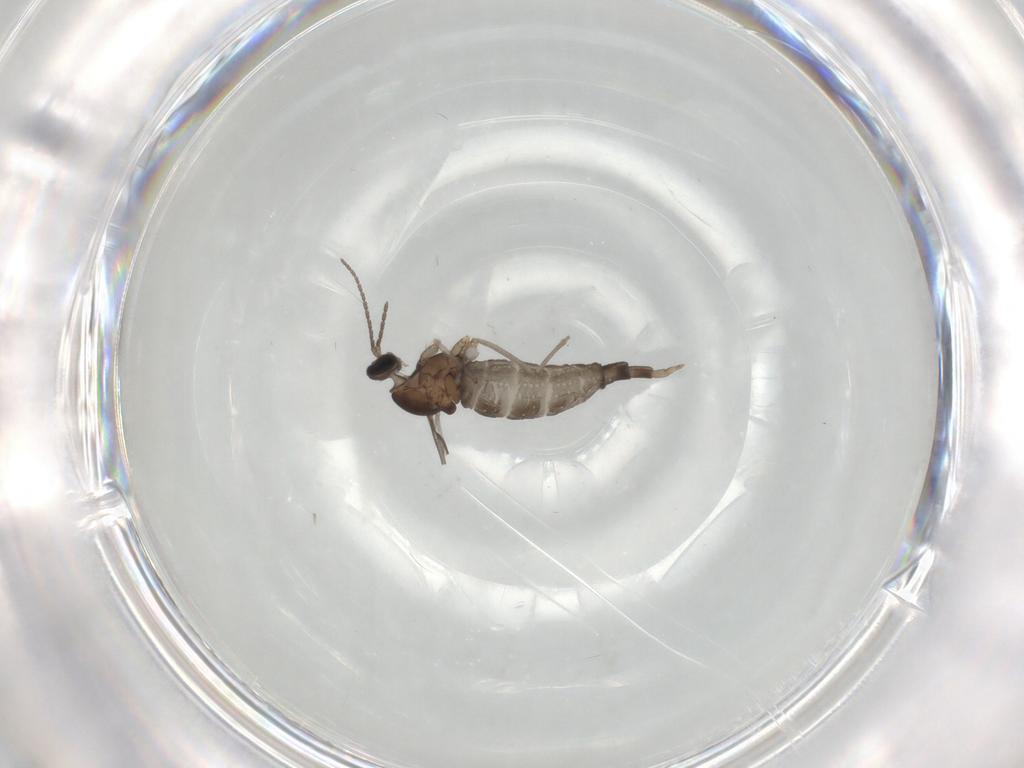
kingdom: Animalia
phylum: Arthropoda
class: Insecta
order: Diptera
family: Cecidomyiidae
